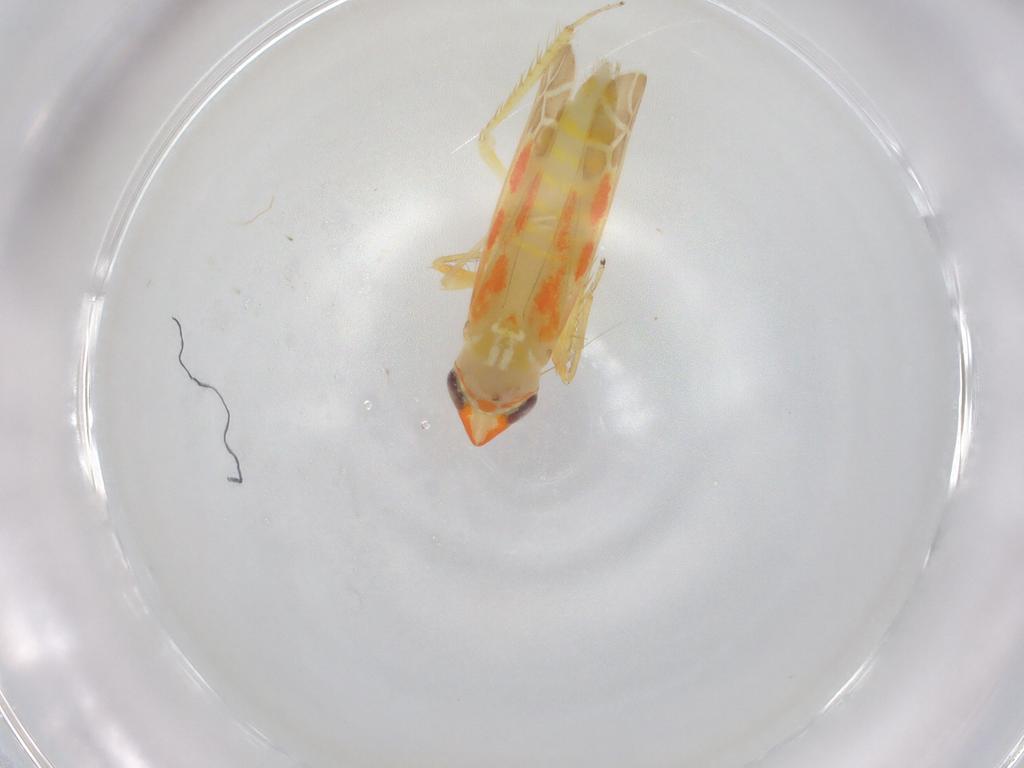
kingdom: Animalia
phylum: Arthropoda
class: Insecta
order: Hemiptera
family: Cicadellidae
